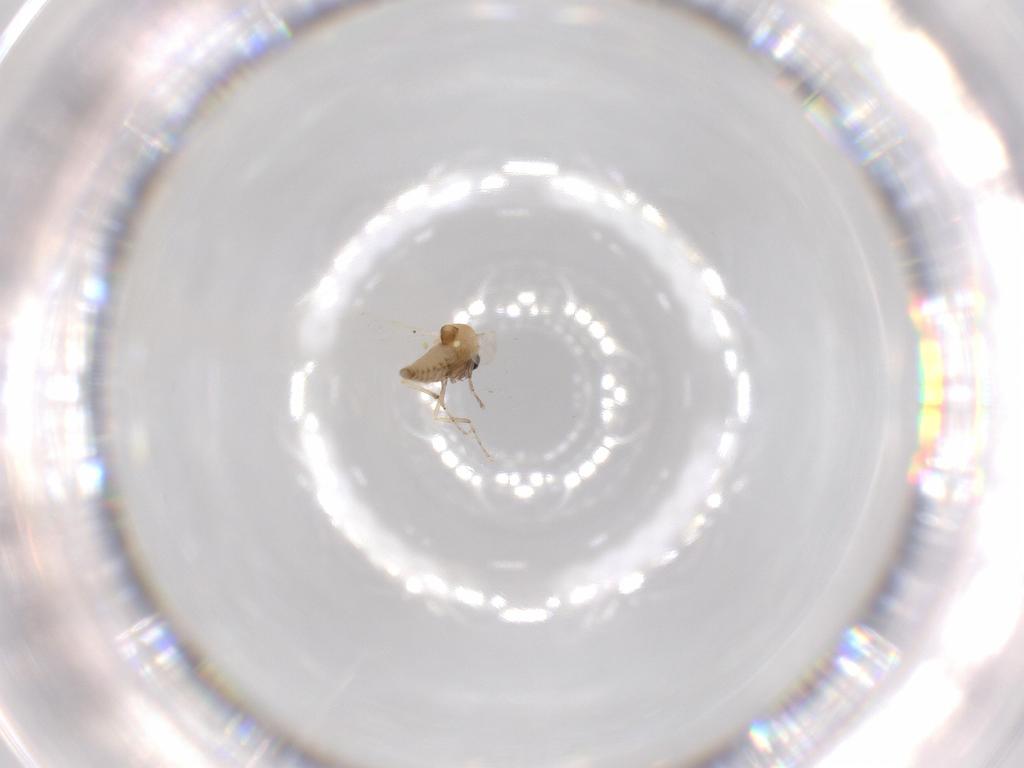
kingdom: Animalia
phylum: Arthropoda
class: Insecta
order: Diptera
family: Ceratopogonidae
